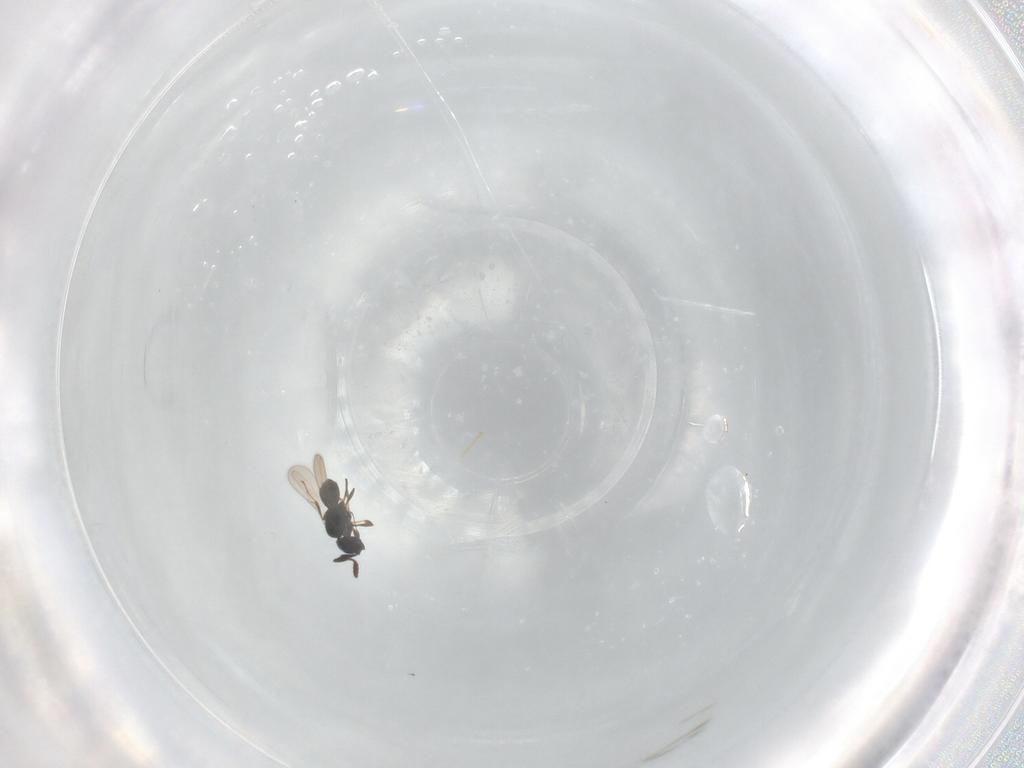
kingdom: Animalia
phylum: Arthropoda
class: Insecta
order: Hymenoptera
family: Scelionidae
